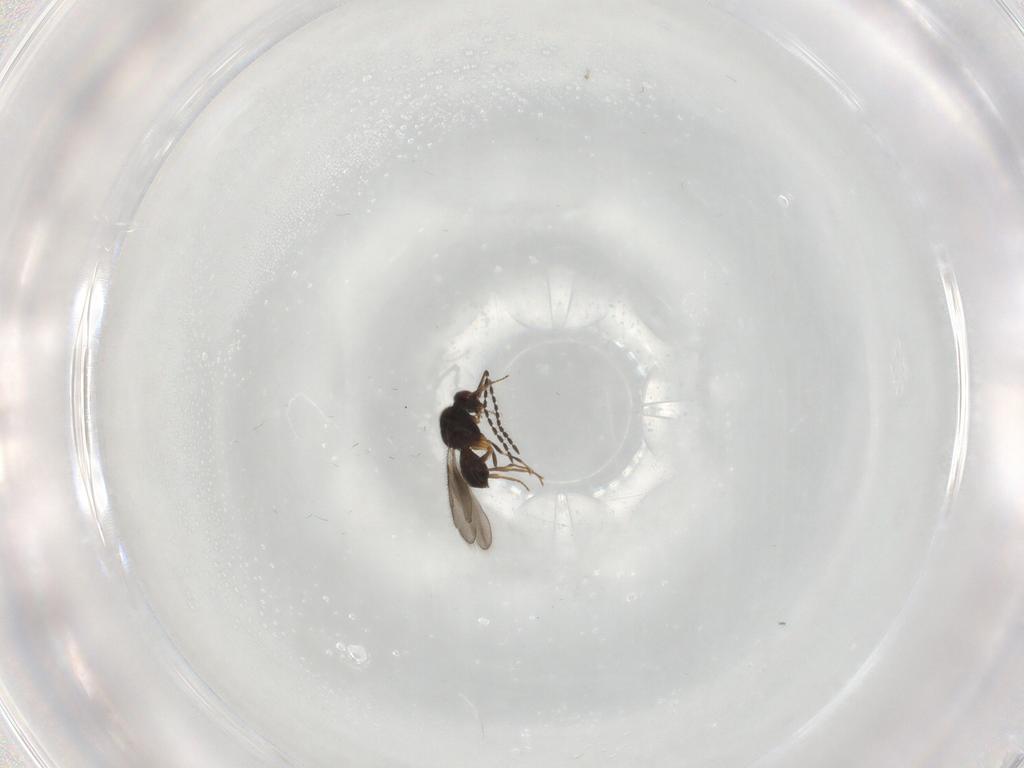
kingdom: Animalia
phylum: Arthropoda
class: Insecta
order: Hymenoptera
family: Ceraphronidae
